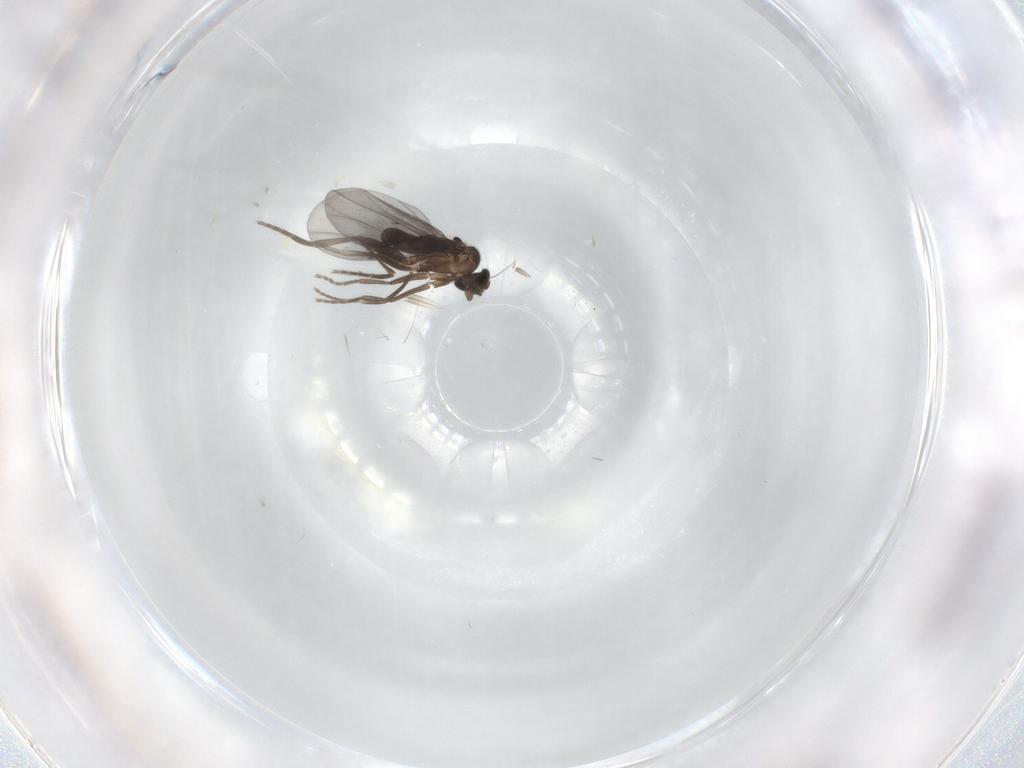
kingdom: Animalia
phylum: Arthropoda
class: Insecta
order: Diptera
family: Phoridae
